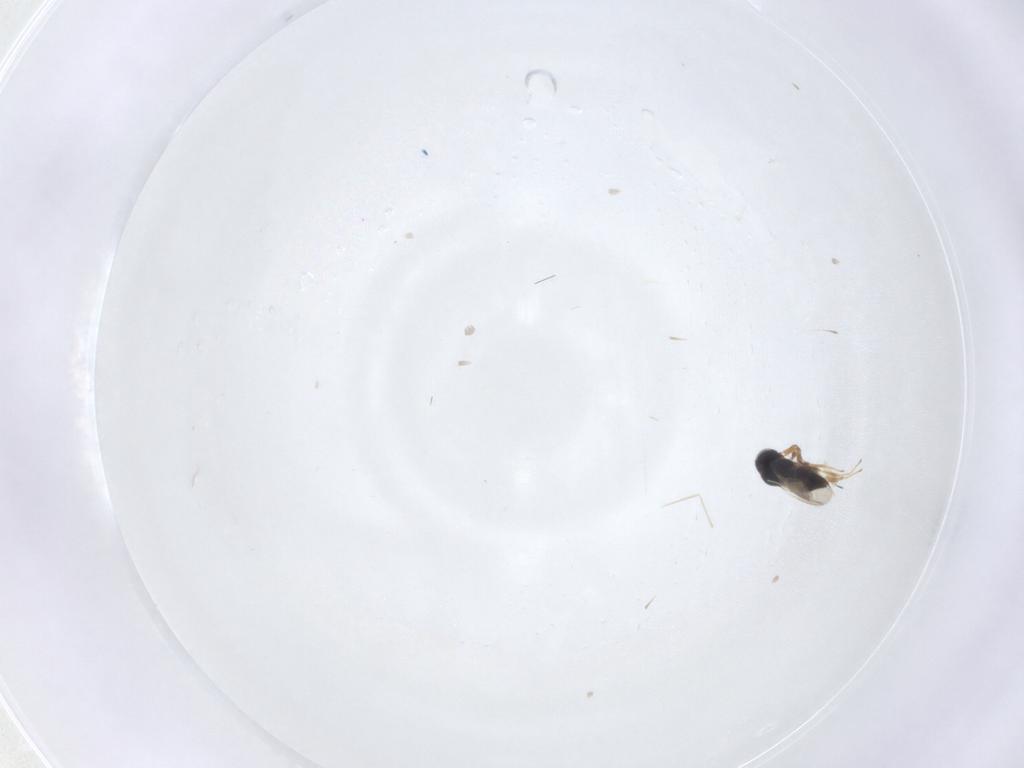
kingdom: Animalia
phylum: Arthropoda
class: Insecta
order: Hymenoptera
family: Scelionidae
